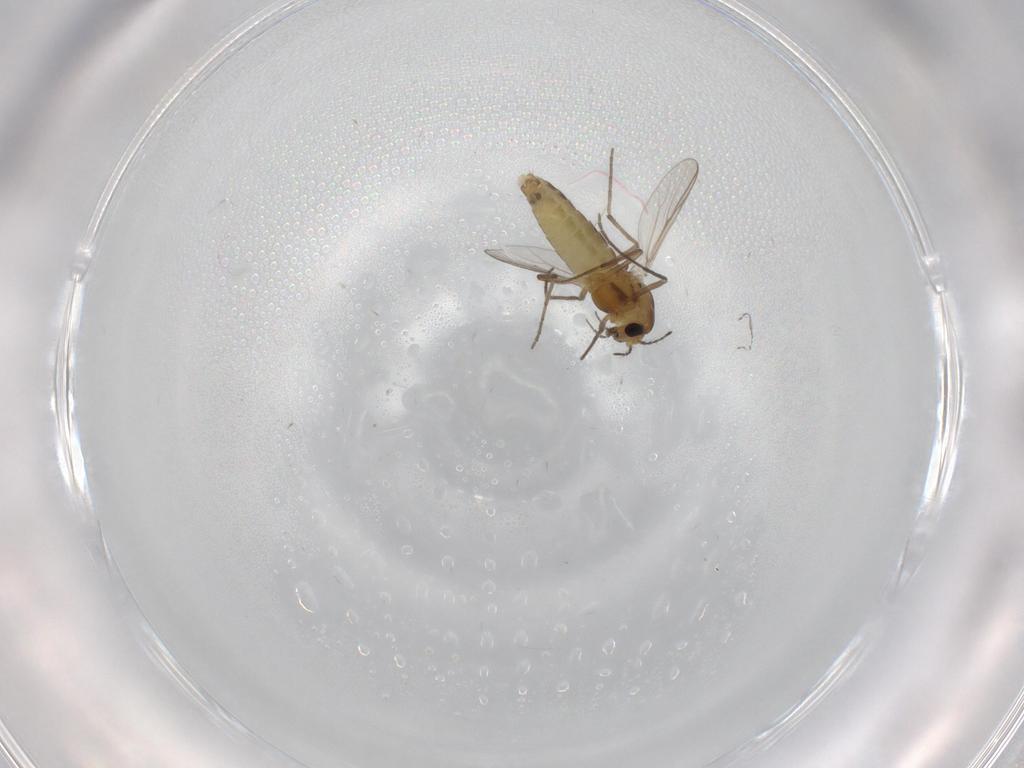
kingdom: Animalia
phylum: Arthropoda
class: Insecta
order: Diptera
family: Chironomidae
